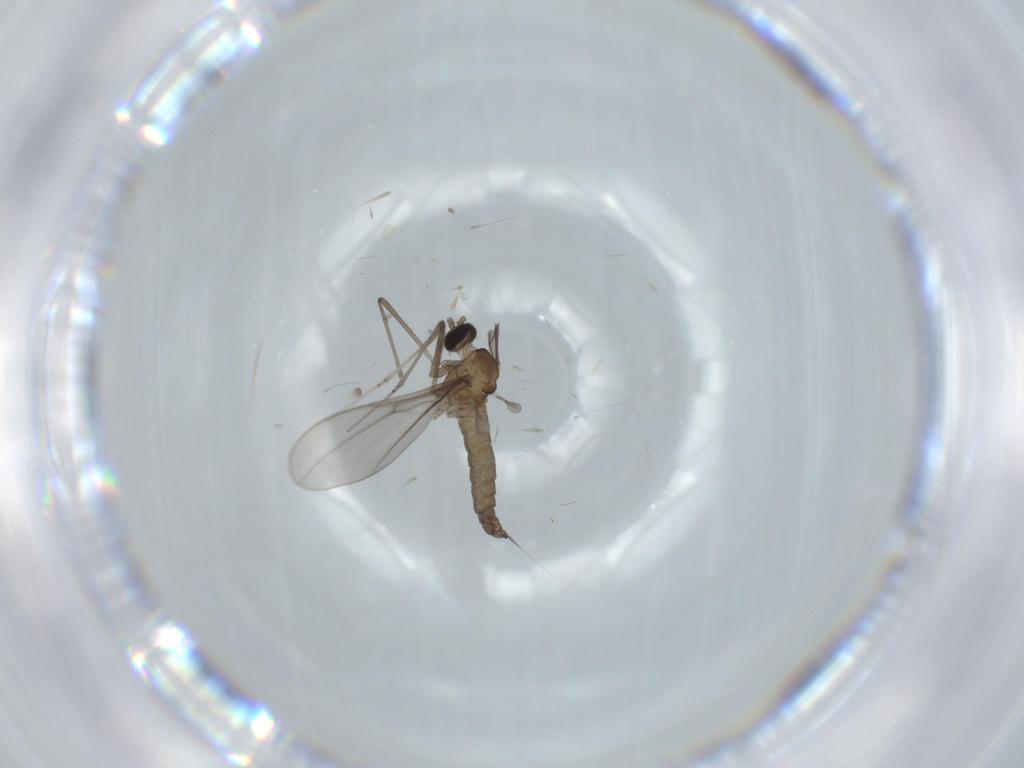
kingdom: Animalia
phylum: Arthropoda
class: Insecta
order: Diptera
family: Cecidomyiidae
